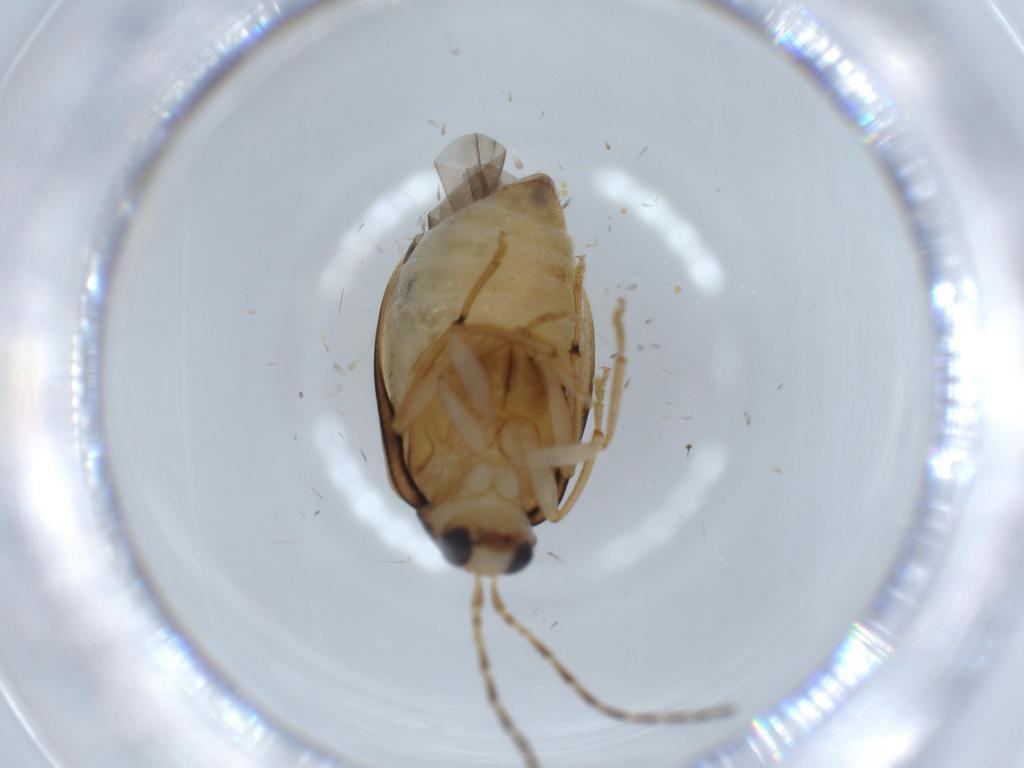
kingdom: Animalia
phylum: Arthropoda
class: Insecta
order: Coleoptera
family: Chrysomelidae
